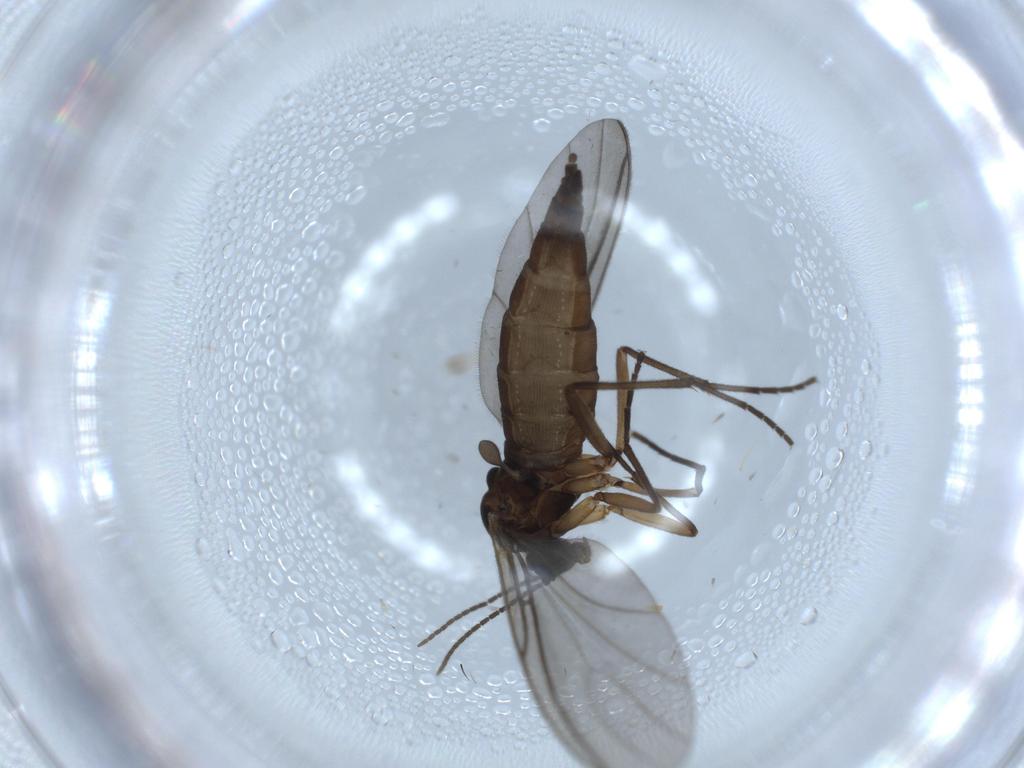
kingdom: Animalia
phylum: Arthropoda
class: Insecta
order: Diptera
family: Sciaridae
